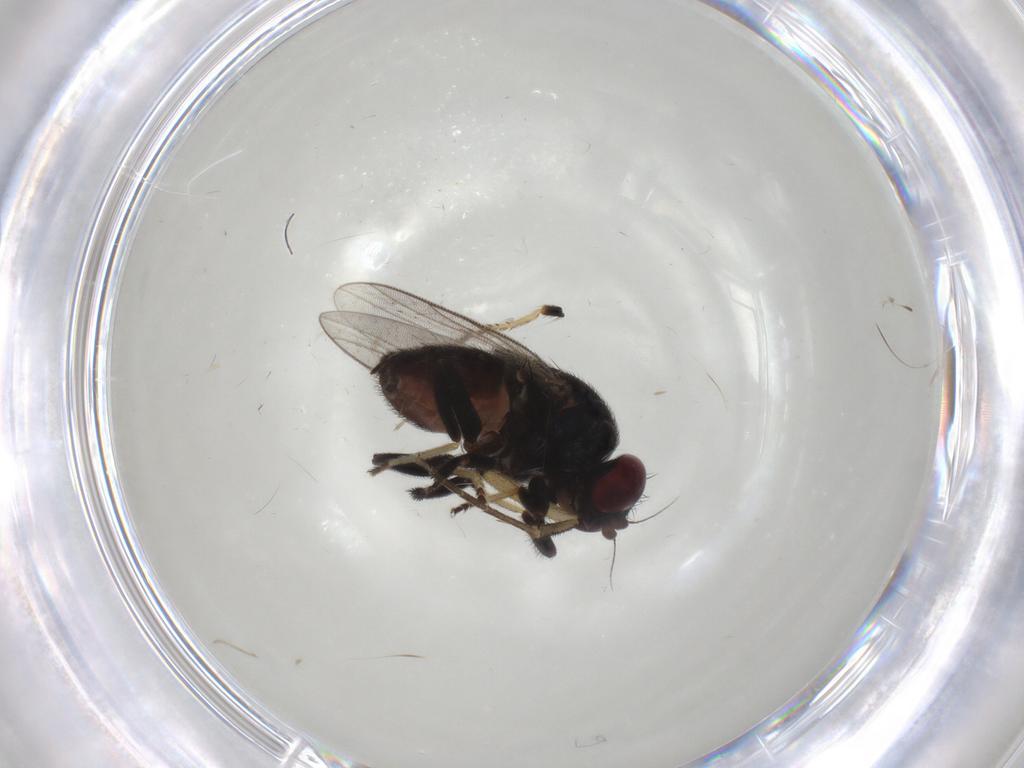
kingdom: Animalia
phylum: Arthropoda
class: Insecta
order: Diptera
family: Chloropidae
